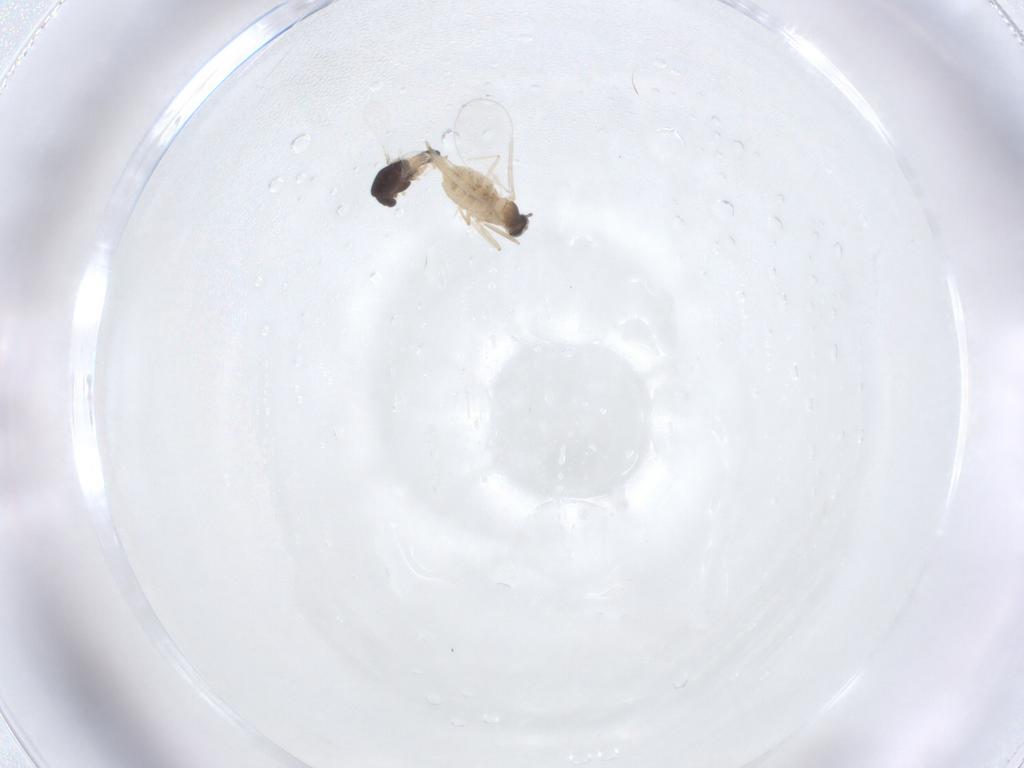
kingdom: Animalia
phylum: Arthropoda
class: Insecta
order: Diptera
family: Chironomidae
